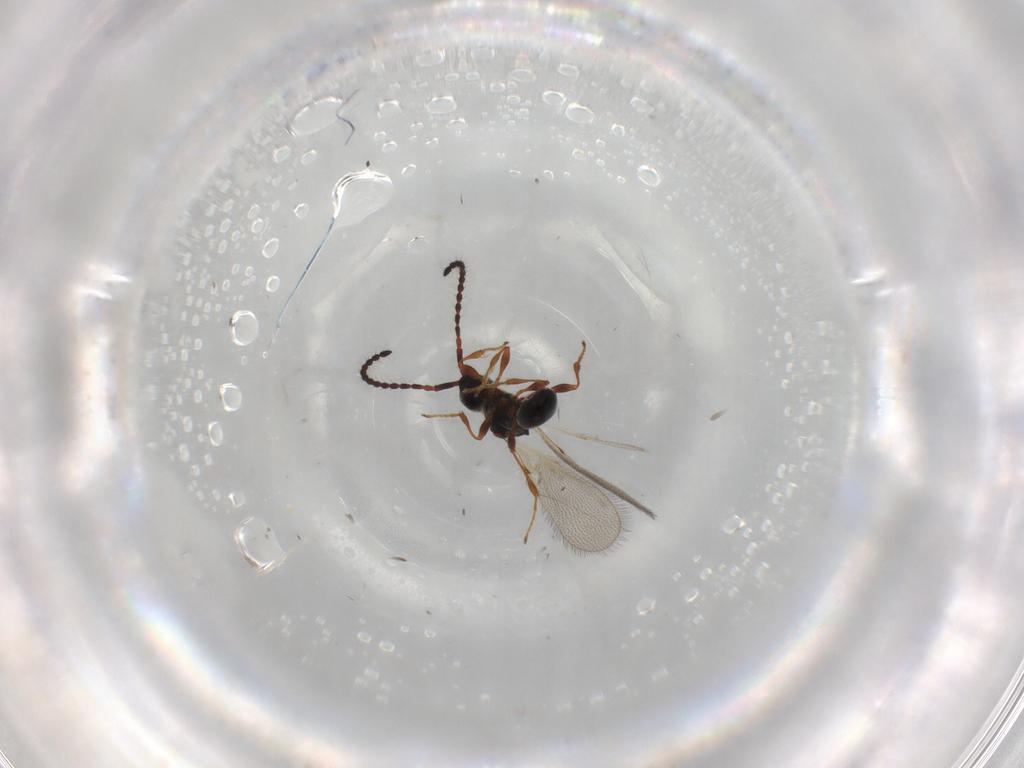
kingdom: Animalia
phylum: Arthropoda
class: Insecta
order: Hymenoptera
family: Diapriidae
